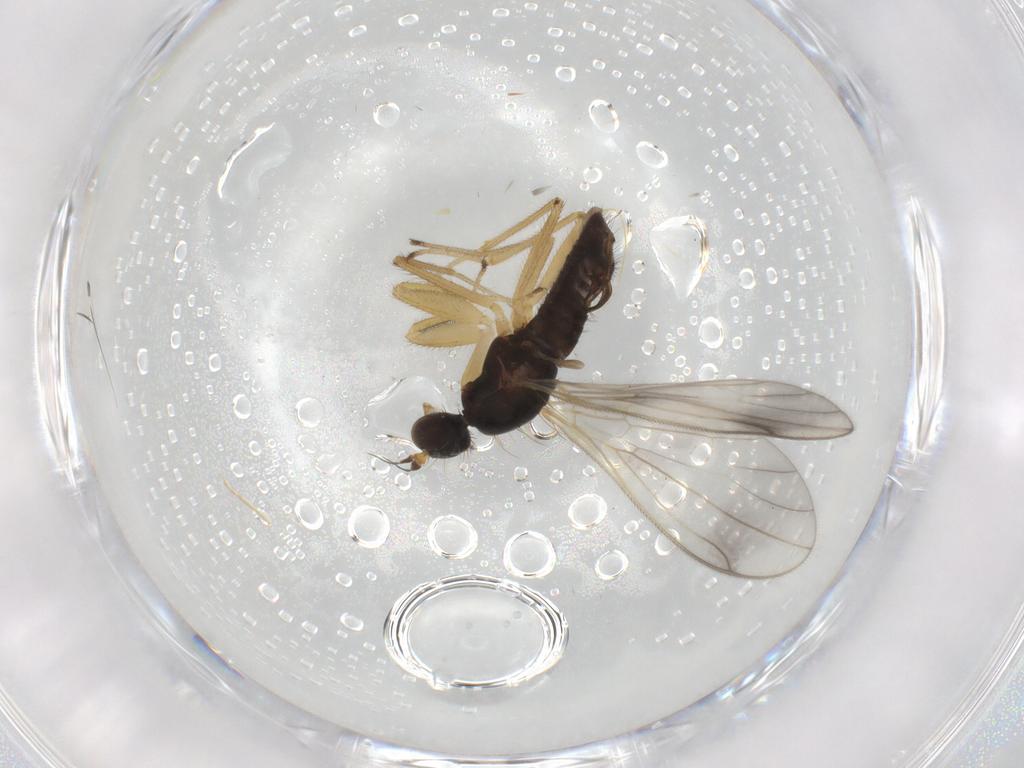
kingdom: Animalia
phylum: Arthropoda
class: Insecta
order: Diptera
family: Empididae
